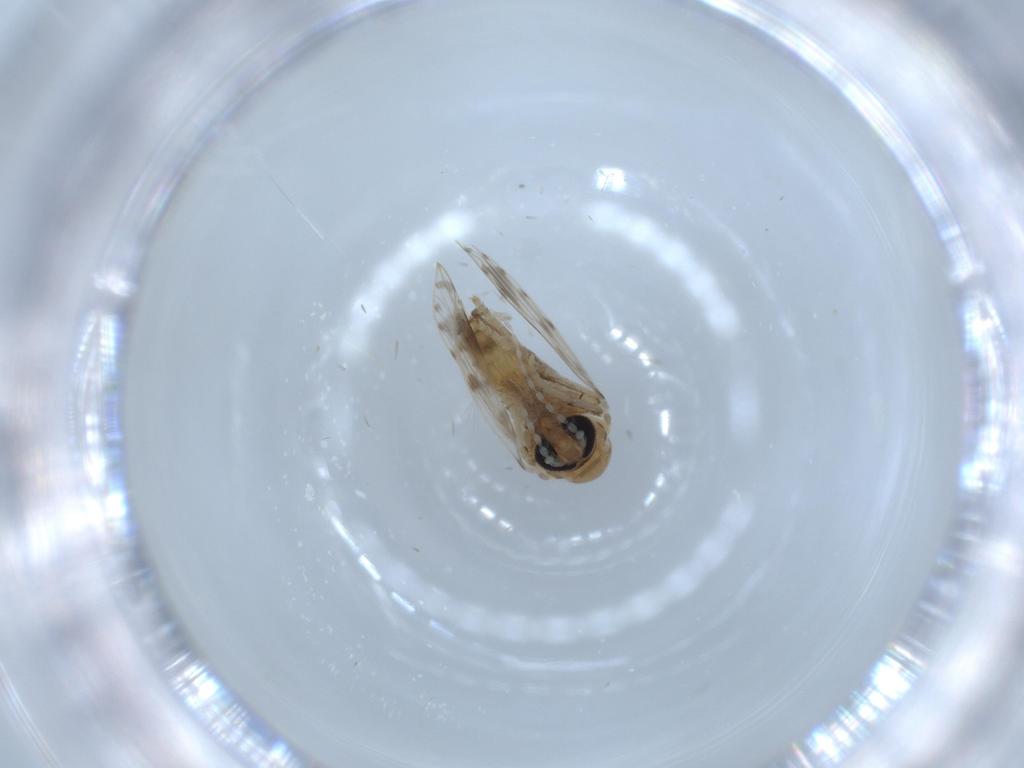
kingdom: Animalia
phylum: Arthropoda
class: Insecta
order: Diptera
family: Psychodidae
